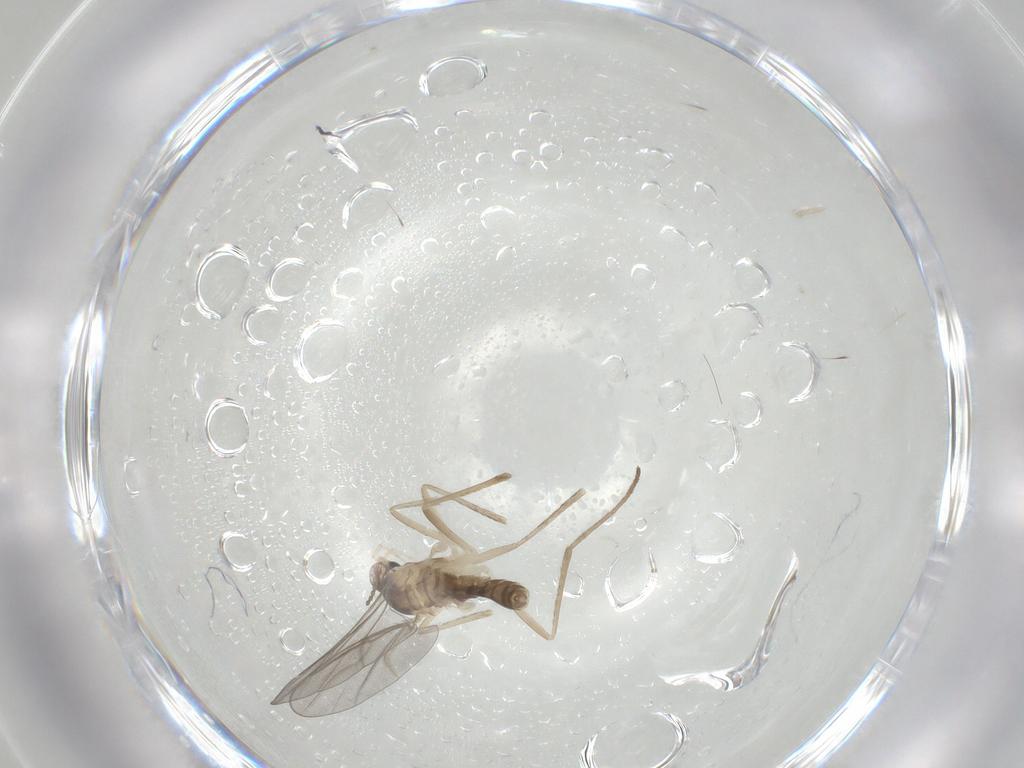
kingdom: Animalia
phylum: Arthropoda
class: Insecta
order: Diptera
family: Cecidomyiidae
